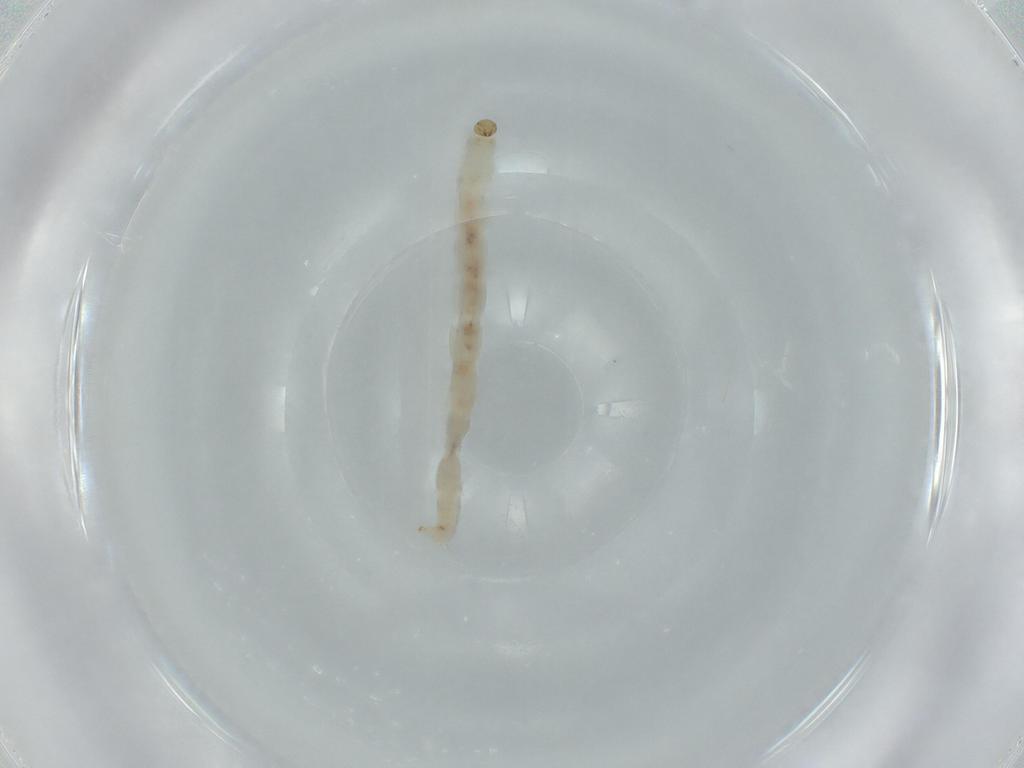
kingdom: Animalia
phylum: Arthropoda
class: Insecta
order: Diptera
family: Chironomidae
